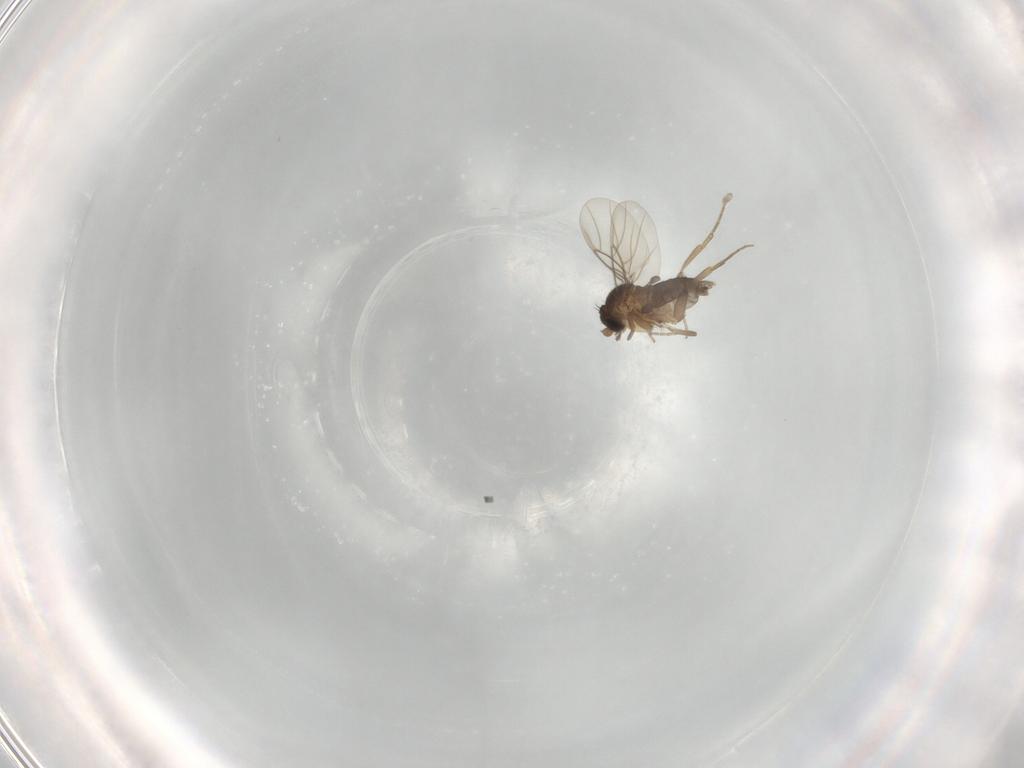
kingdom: Animalia
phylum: Arthropoda
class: Insecta
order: Diptera
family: Phoridae
